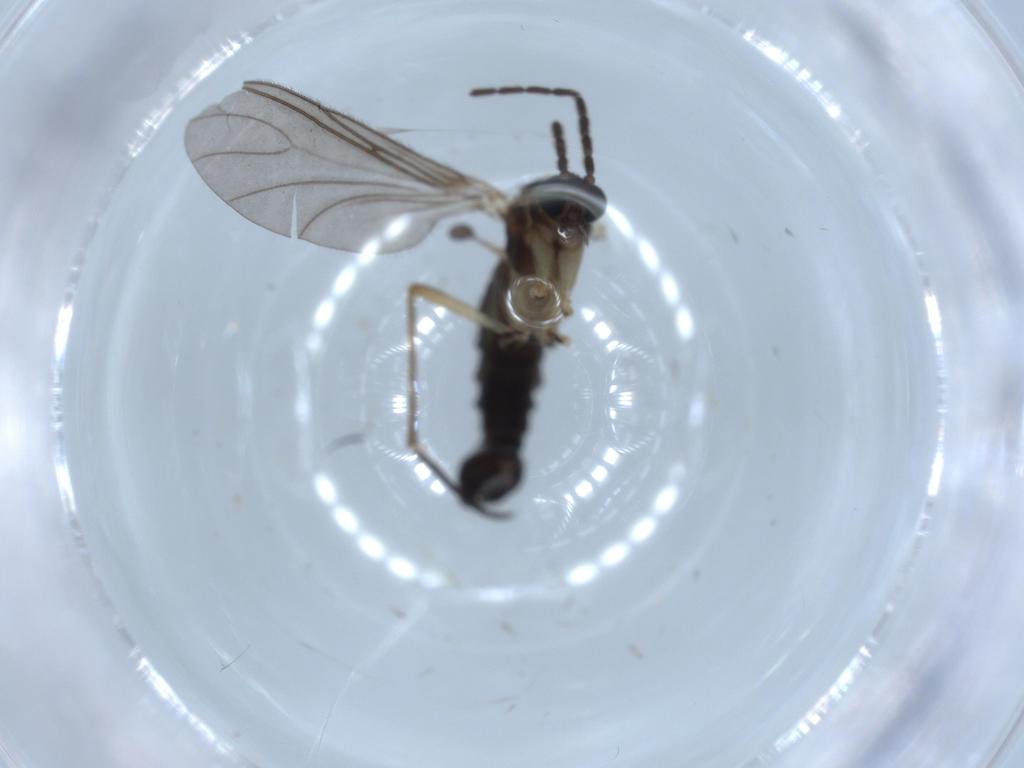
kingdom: Animalia
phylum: Arthropoda
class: Insecta
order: Diptera
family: Sciaridae
